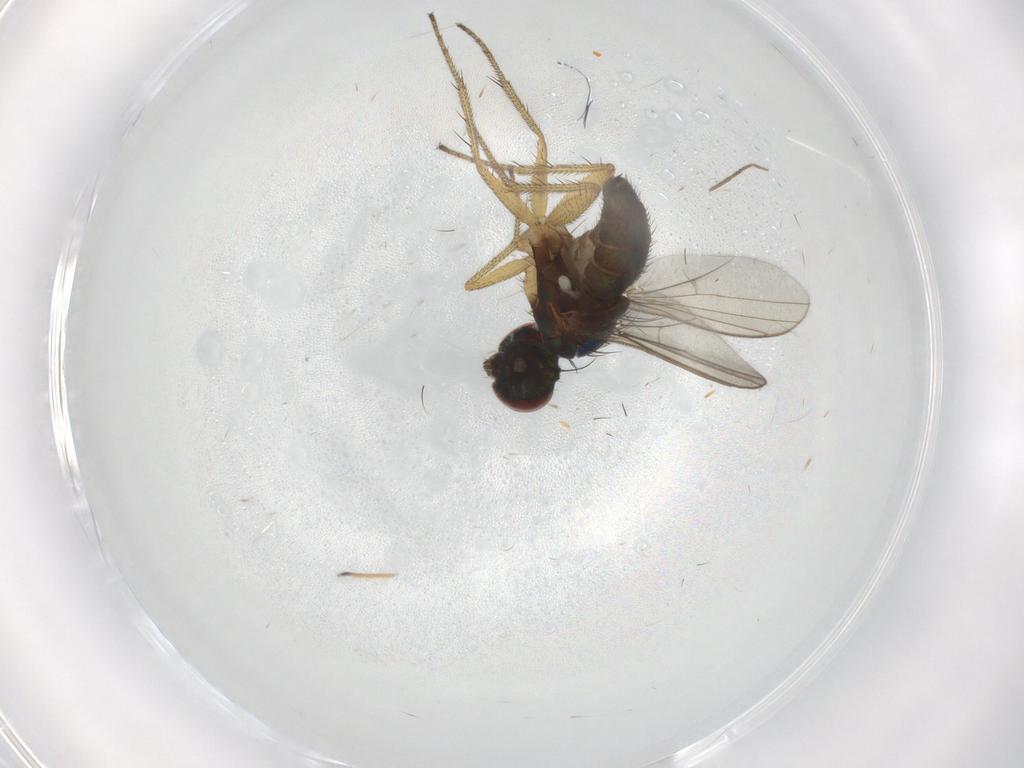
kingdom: Animalia
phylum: Arthropoda
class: Insecta
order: Diptera
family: Dolichopodidae
